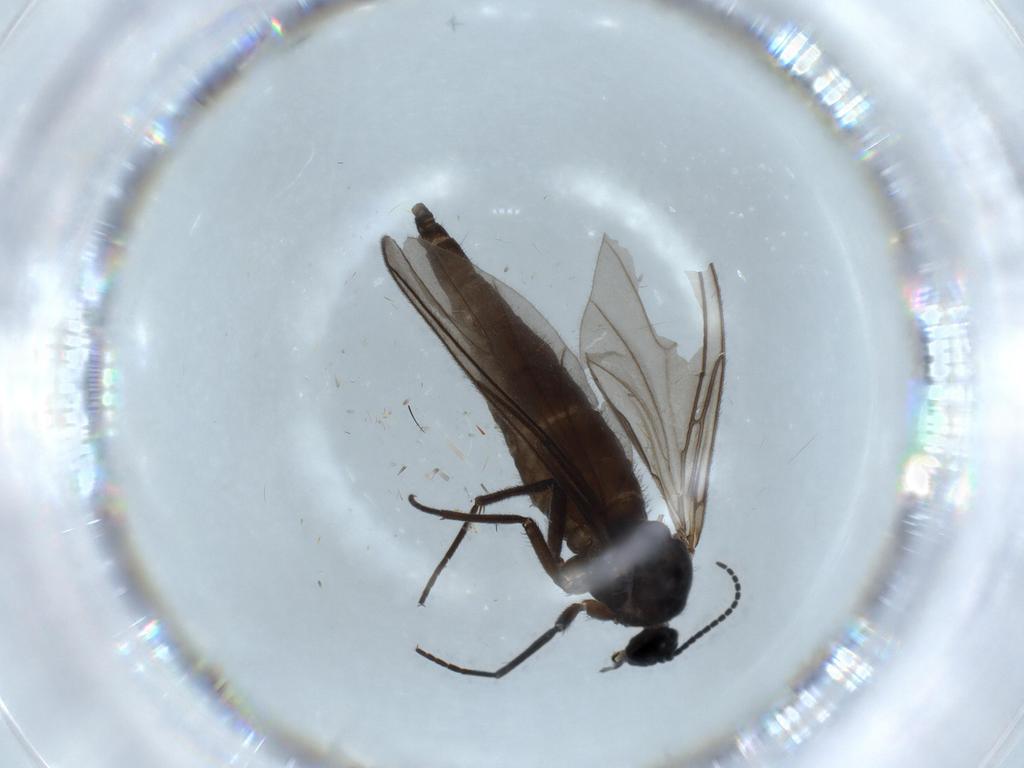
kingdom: Animalia
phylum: Arthropoda
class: Insecta
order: Diptera
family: Sciaridae
